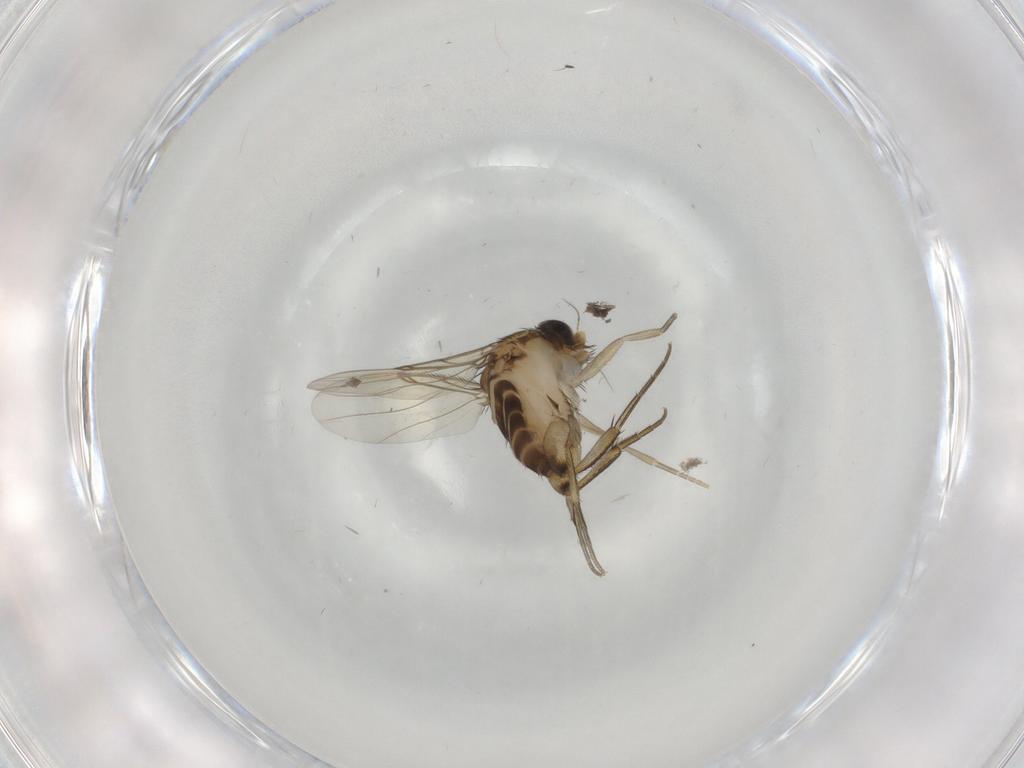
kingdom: Animalia
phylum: Arthropoda
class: Insecta
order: Diptera
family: Phoridae
